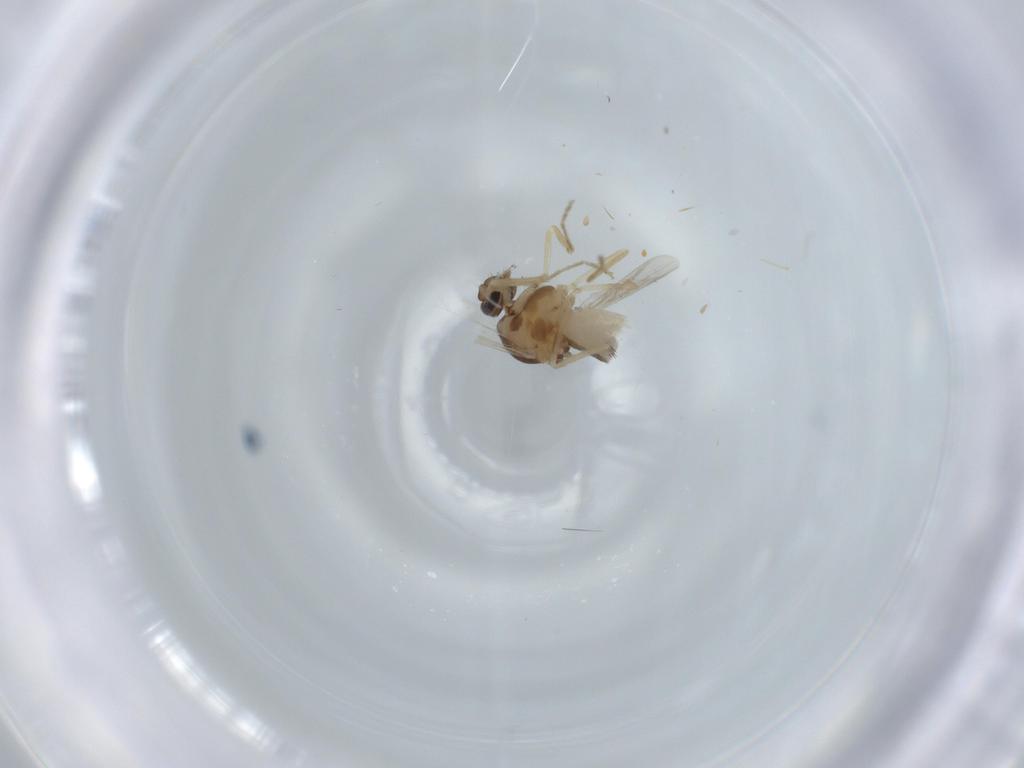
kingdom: Animalia
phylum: Arthropoda
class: Insecta
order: Diptera
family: Ceratopogonidae
